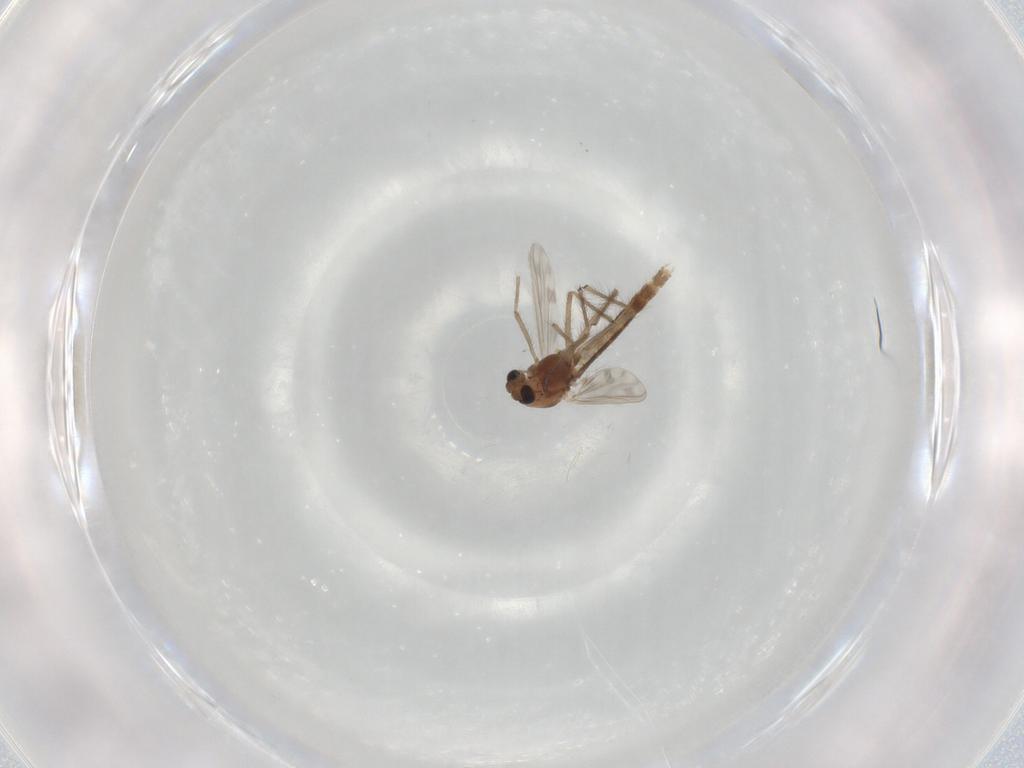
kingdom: Animalia
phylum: Arthropoda
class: Insecta
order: Diptera
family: Chironomidae
